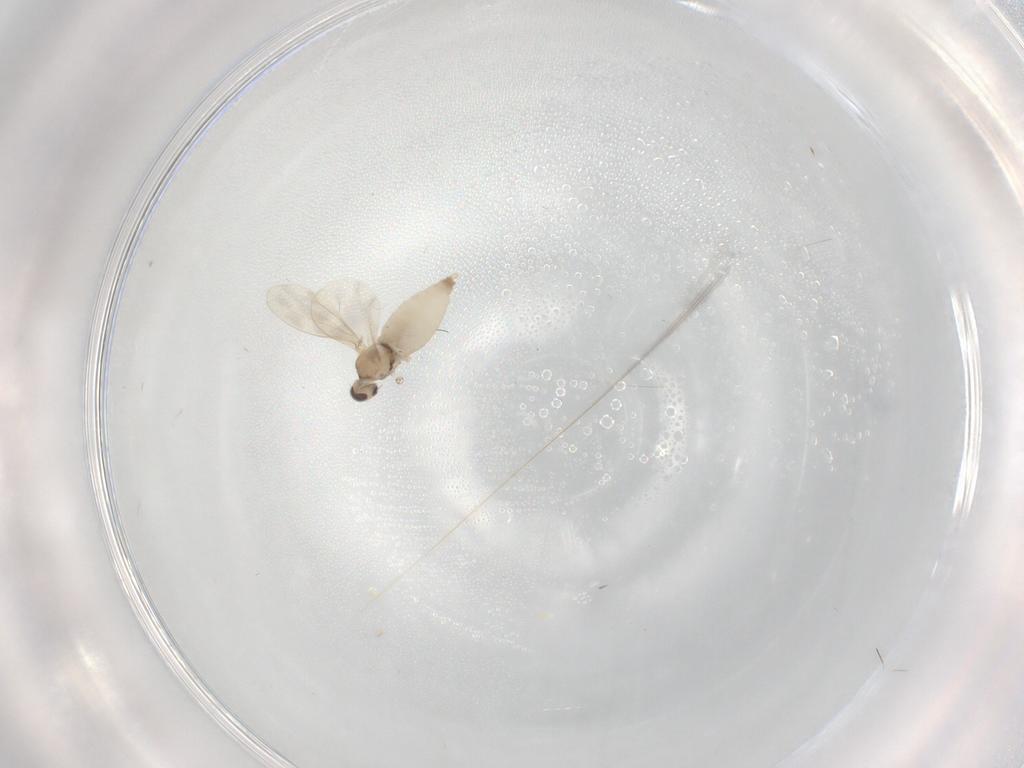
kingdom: Animalia
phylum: Arthropoda
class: Insecta
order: Diptera
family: Cecidomyiidae
